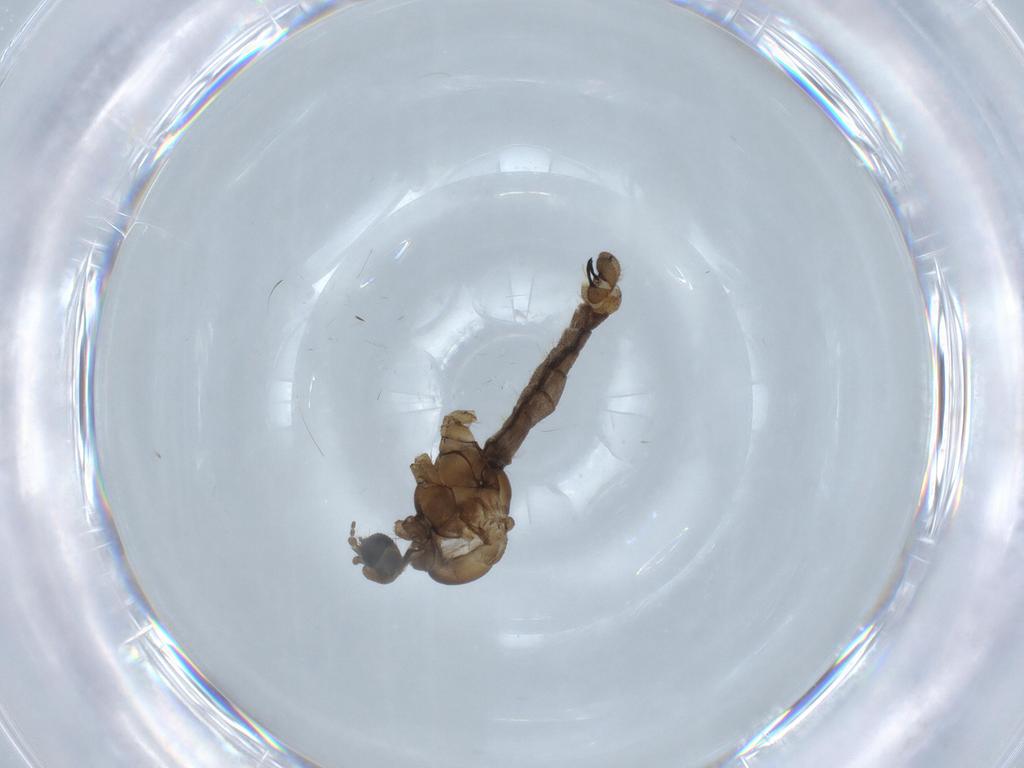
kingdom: Animalia
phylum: Arthropoda
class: Insecta
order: Diptera
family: Hybotidae
